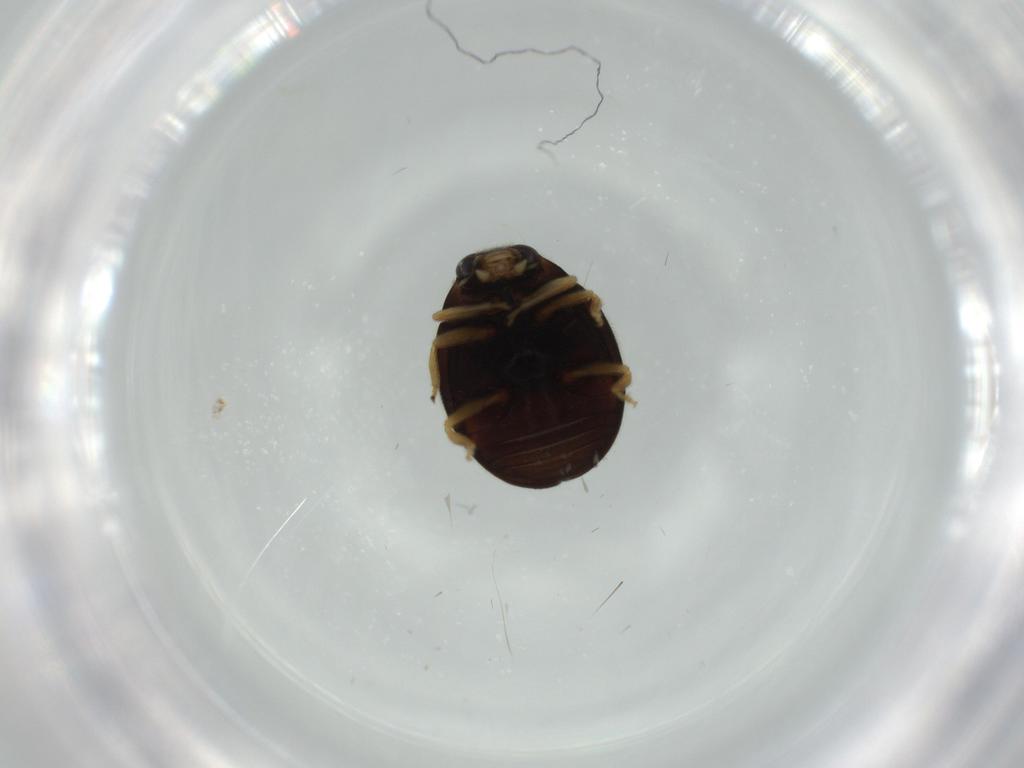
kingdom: Animalia
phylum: Arthropoda
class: Insecta
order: Coleoptera
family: Coccinellidae
